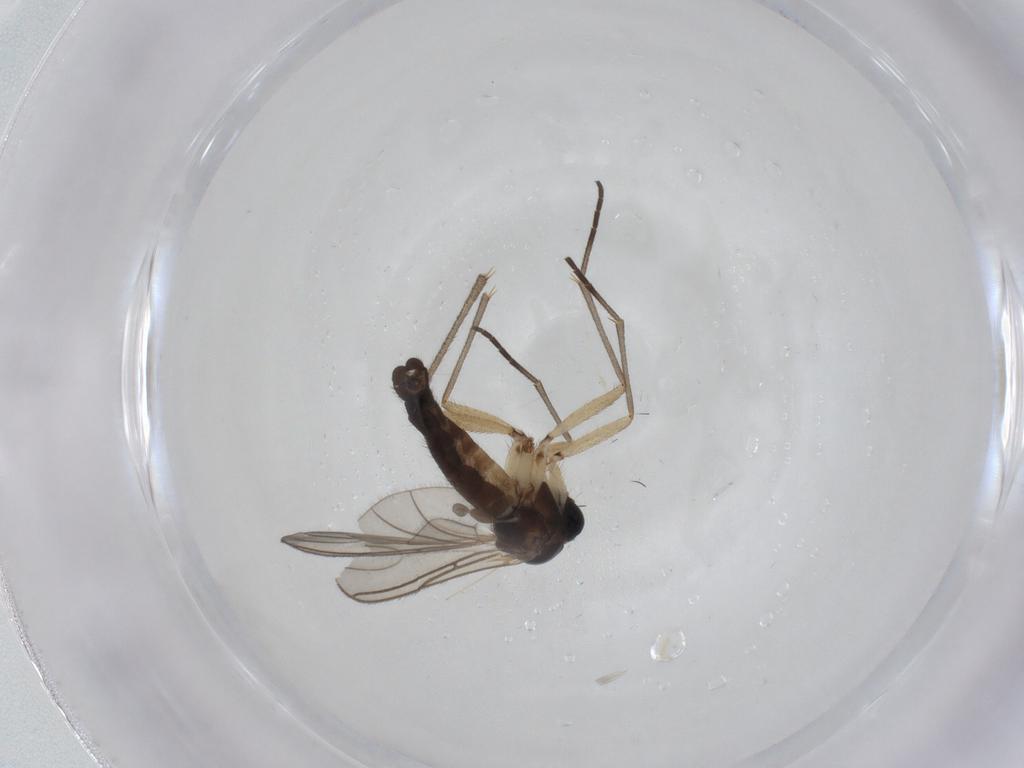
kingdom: Animalia
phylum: Arthropoda
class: Insecta
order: Diptera
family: Sciaridae
